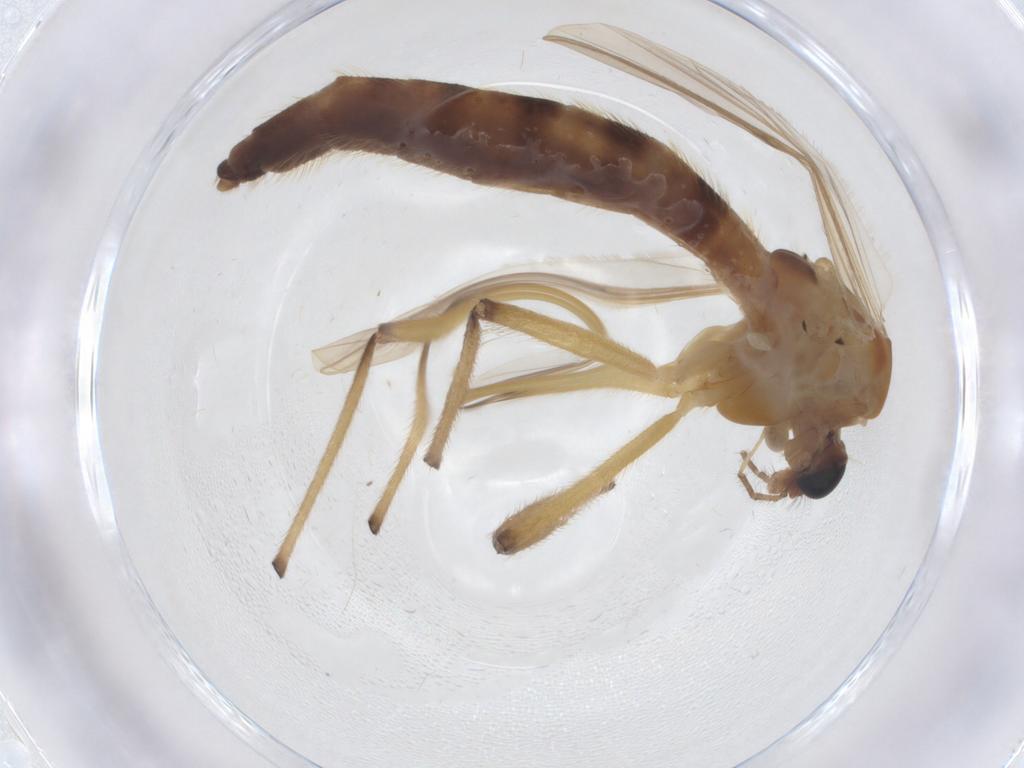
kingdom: Animalia
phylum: Arthropoda
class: Insecta
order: Diptera
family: Chironomidae
